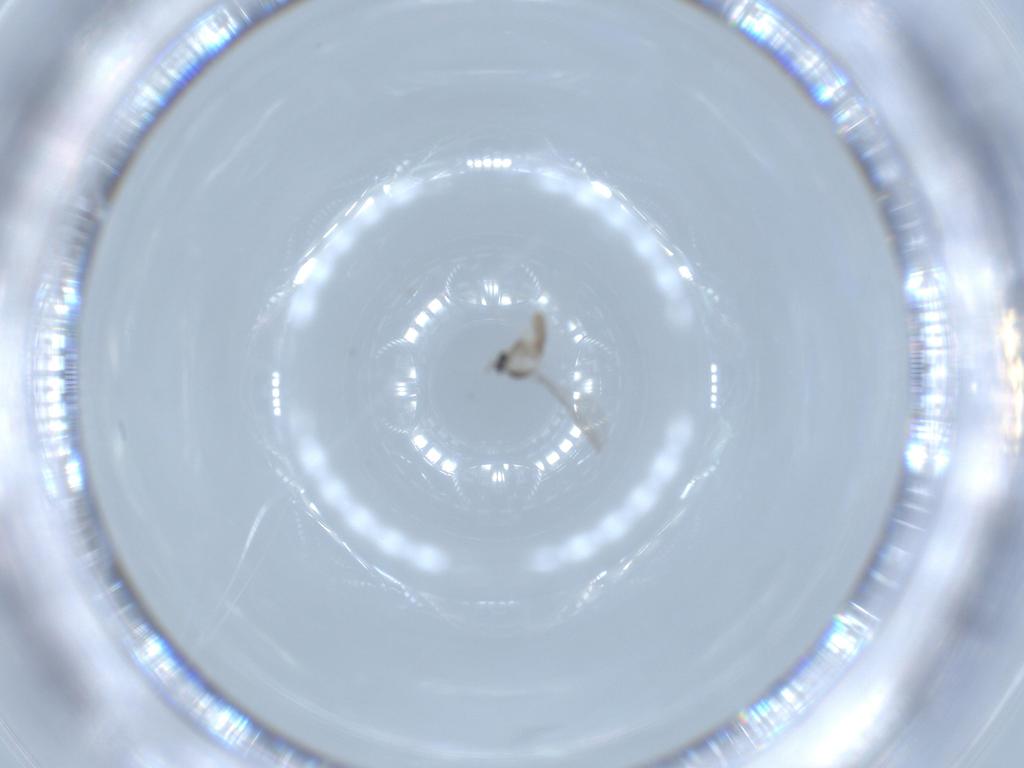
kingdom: Animalia
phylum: Arthropoda
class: Insecta
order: Diptera
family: Cecidomyiidae
